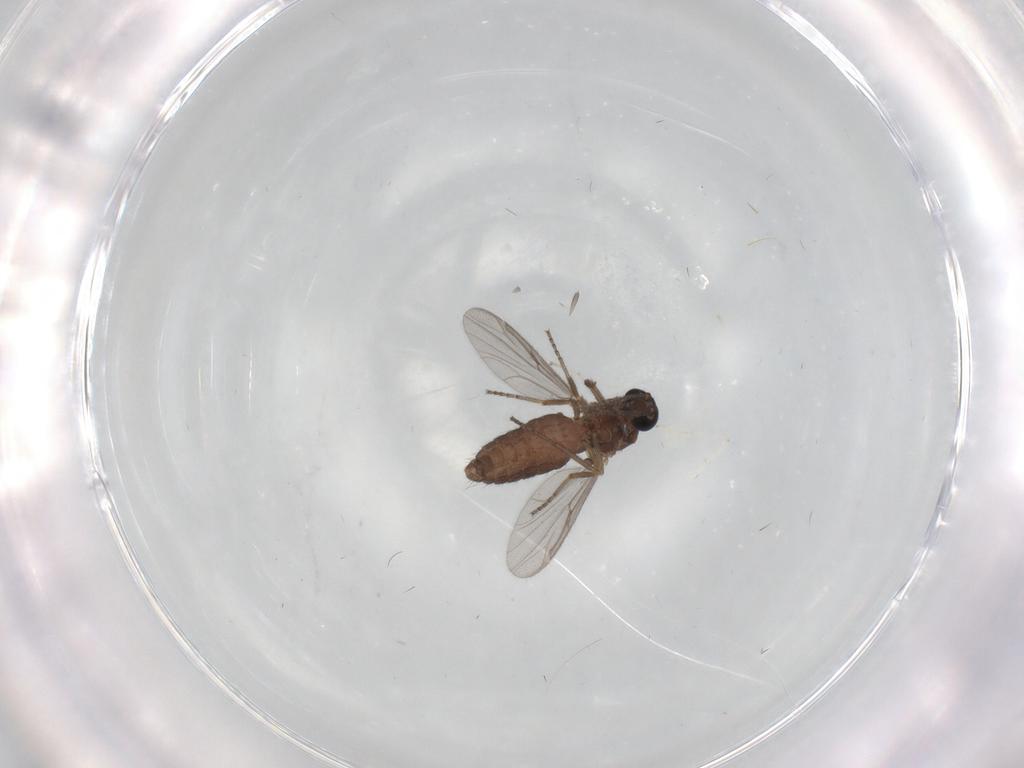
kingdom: Animalia
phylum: Arthropoda
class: Insecta
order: Diptera
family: Ceratopogonidae
